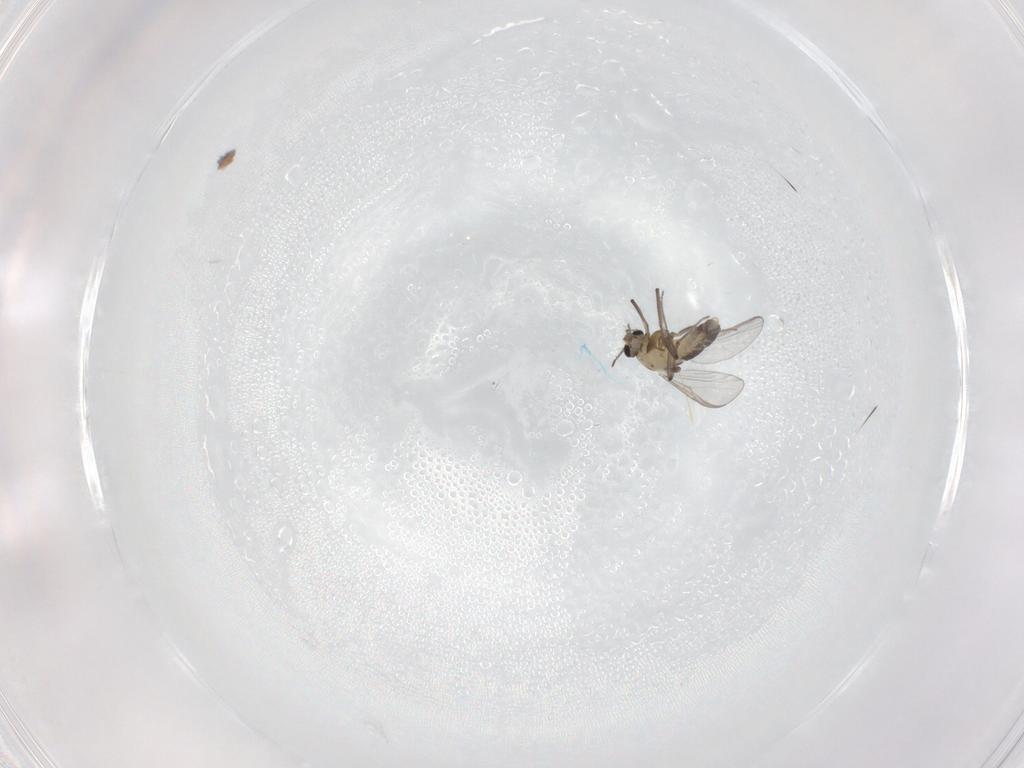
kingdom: Animalia
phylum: Arthropoda
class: Insecta
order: Diptera
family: Chironomidae
